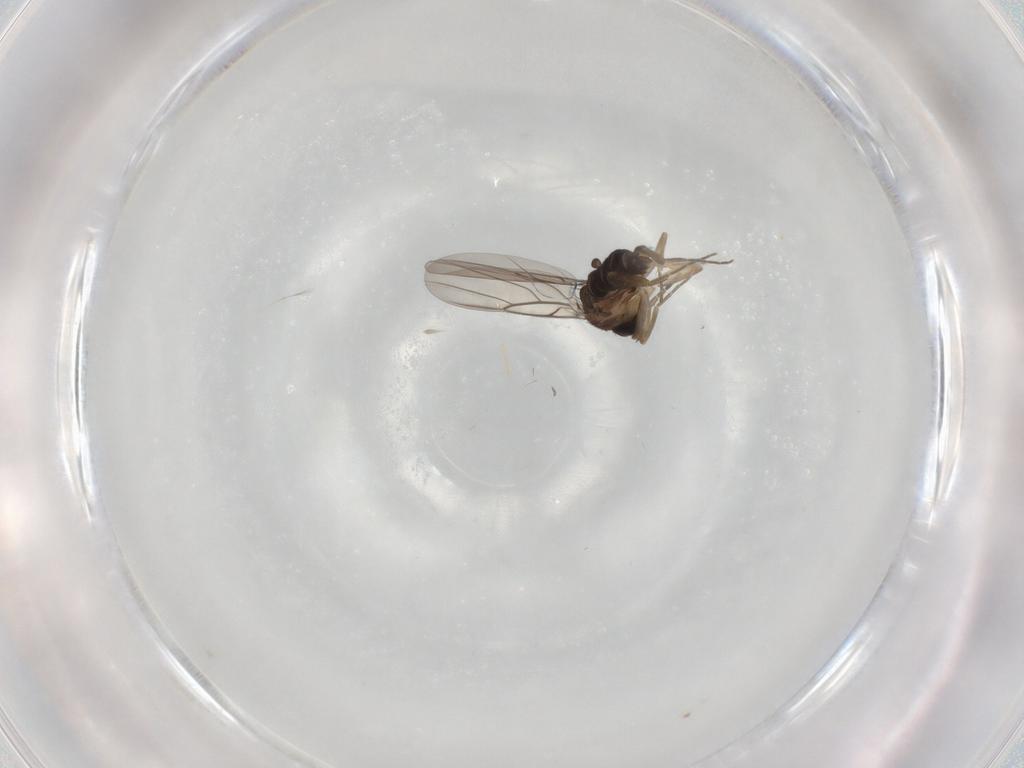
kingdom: Animalia
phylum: Arthropoda
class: Insecta
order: Diptera
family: Phoridae
